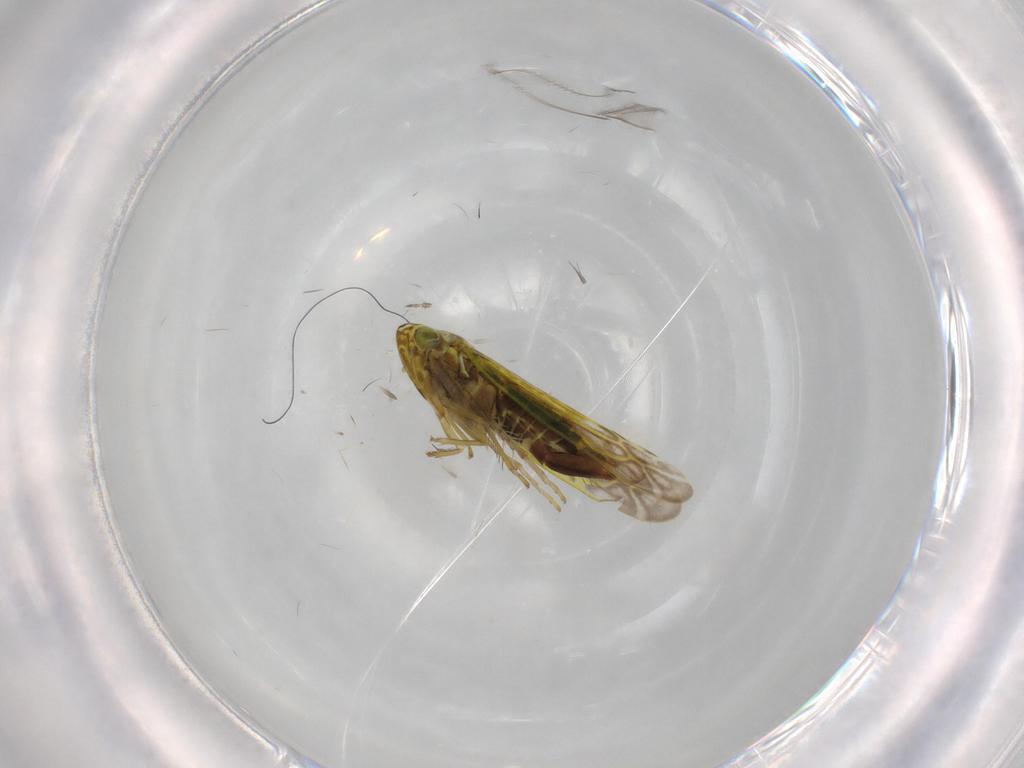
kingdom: Animalia
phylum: Arthropoda
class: Insecta
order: Hemiptera
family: Cicadellidae
